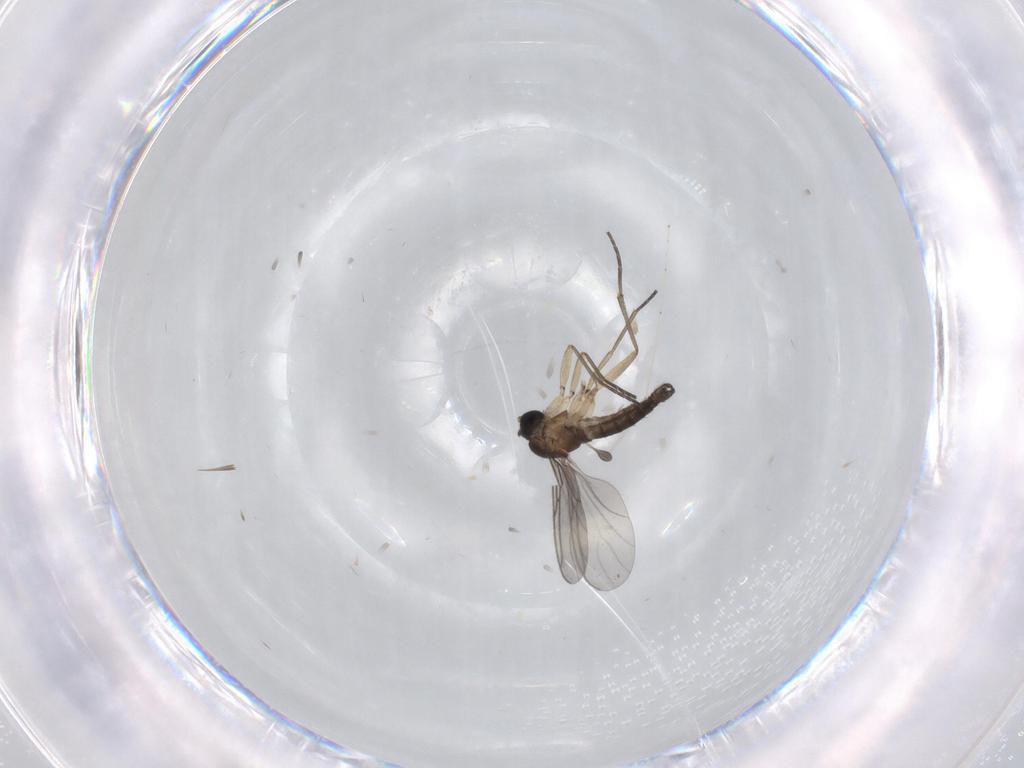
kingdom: Animalia
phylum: Arthropoda
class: Insecta
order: Diptera
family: Sciaridae
